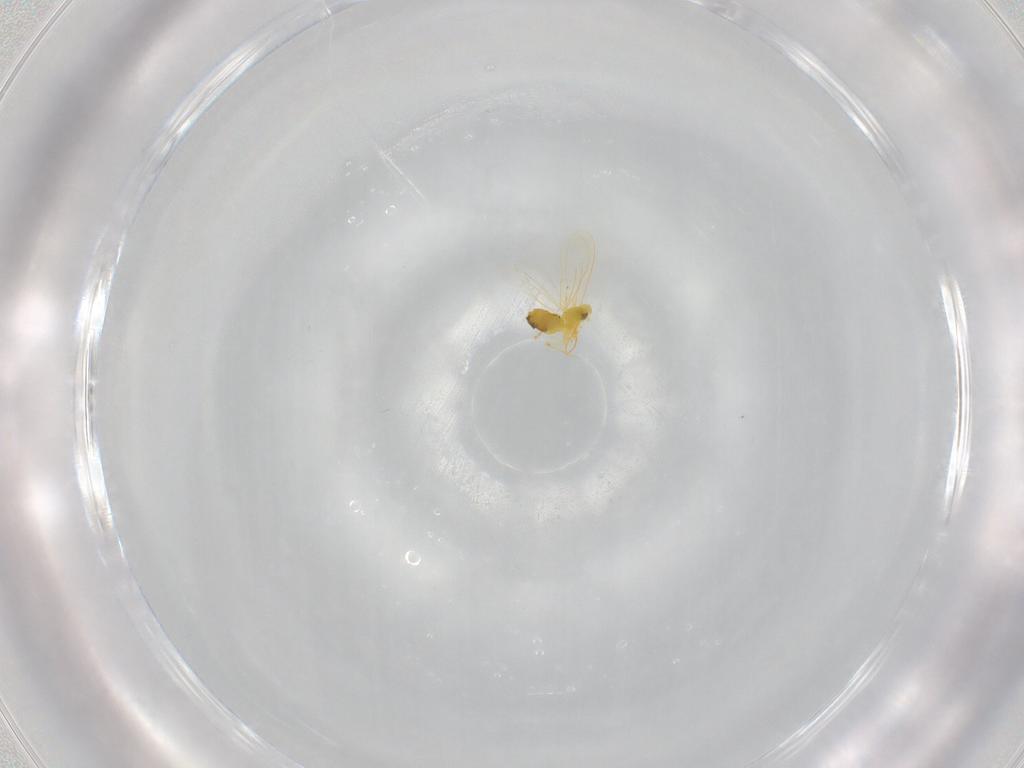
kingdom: Animalia
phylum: Arthropoda
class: Insecta
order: Hemiptera
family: Aleyrodidae
